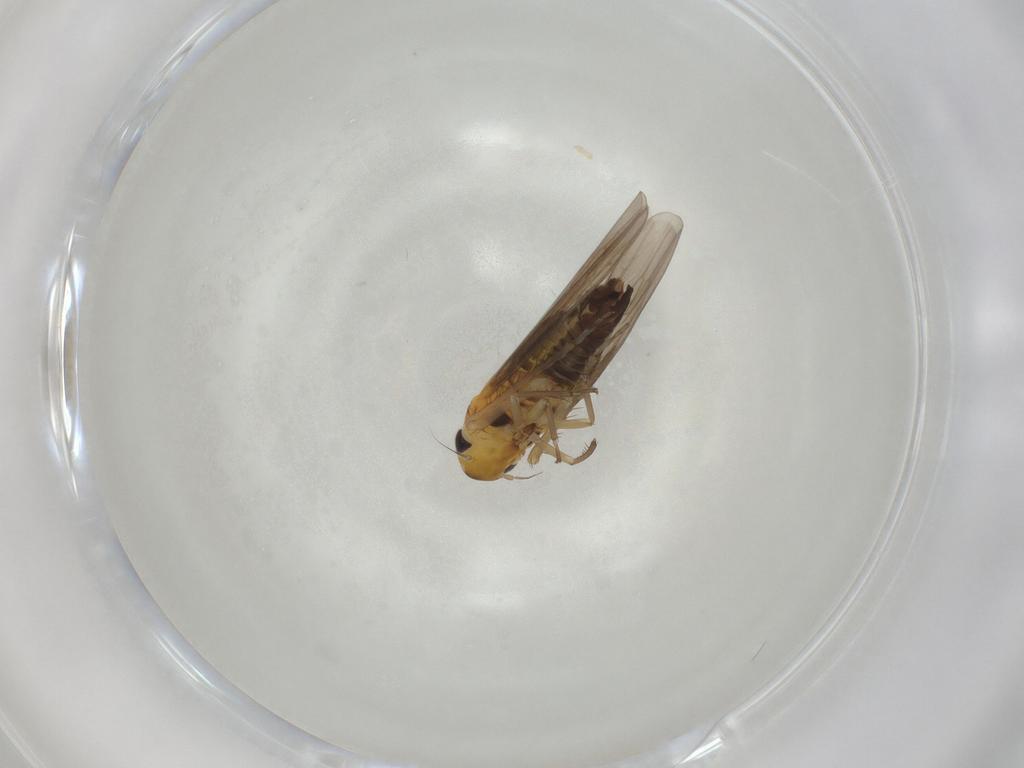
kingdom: Animalia
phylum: Arthropoda
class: Insecta
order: Hemiptera
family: Cicadellidae
